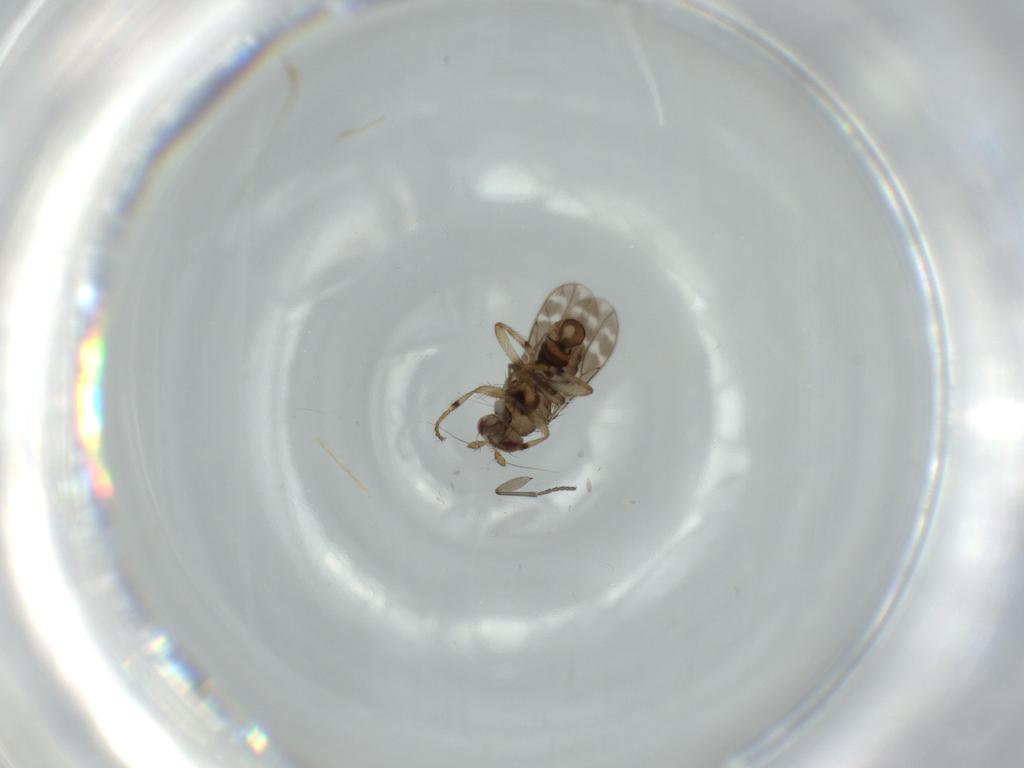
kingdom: Animalia
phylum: Arthropoda
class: Insecta
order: Diptera
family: Sphaeroceridae
